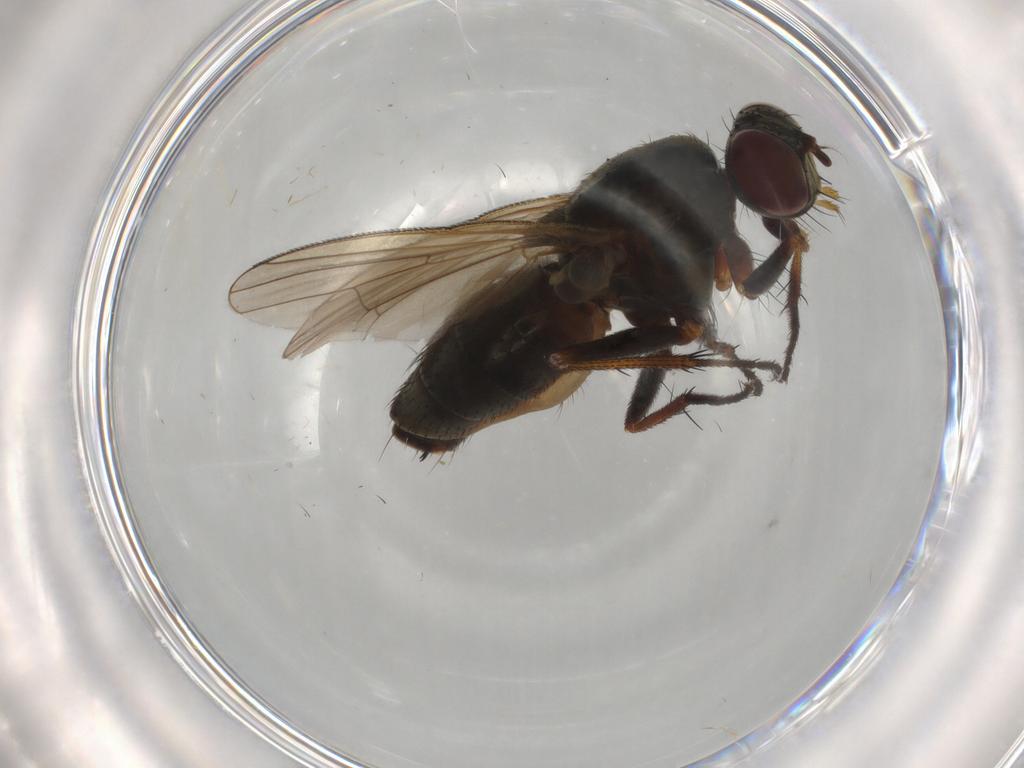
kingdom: Animalia
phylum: Arthropoda
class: Insecta
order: Diptera
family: Muscidae
